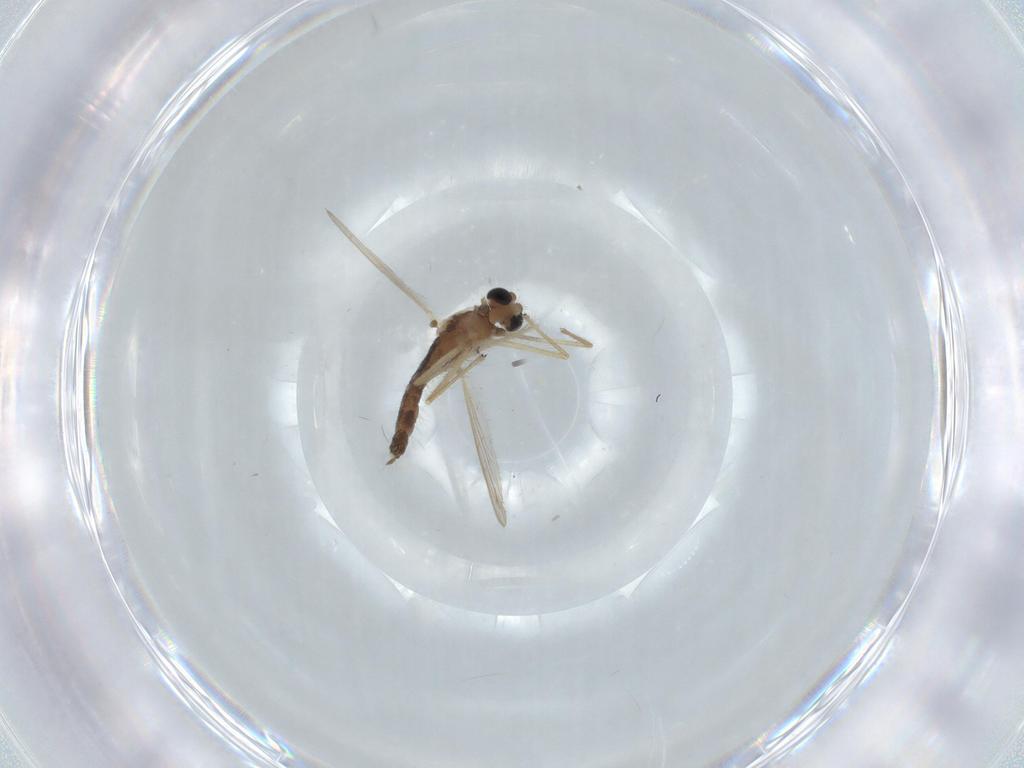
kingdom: Animalia
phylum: Arthropoda
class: Insecta
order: Diptera
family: Chironomidae
